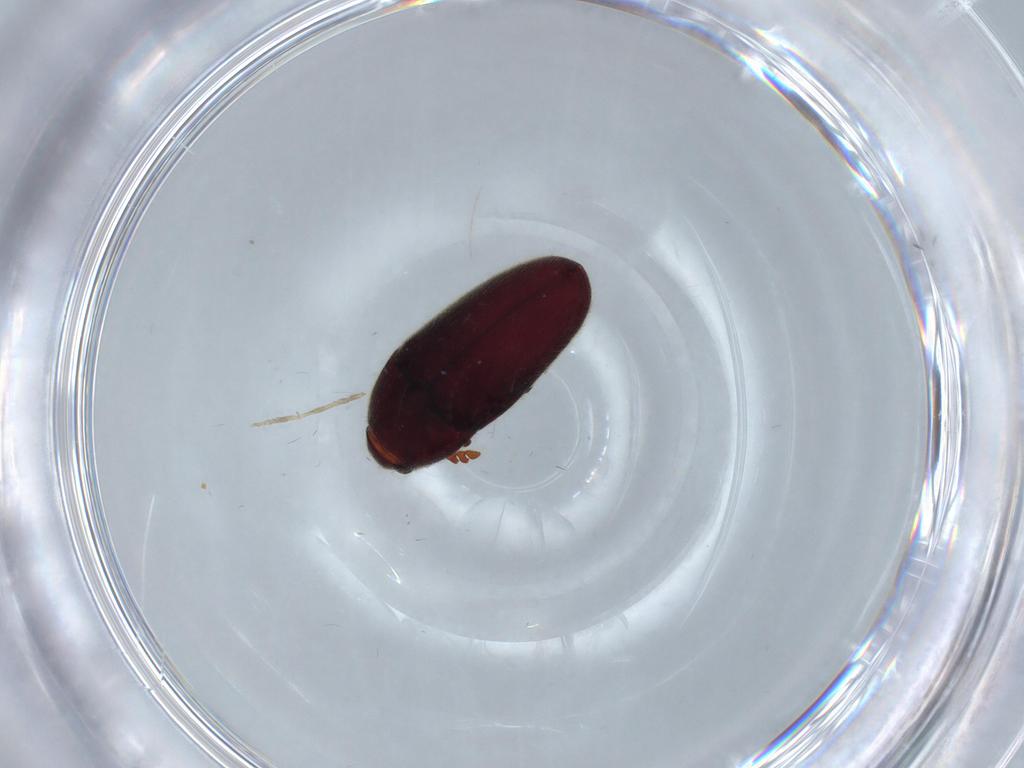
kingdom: Animalia
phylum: Arthropoda
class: Insecta
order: Coleoptera
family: Throscidae
